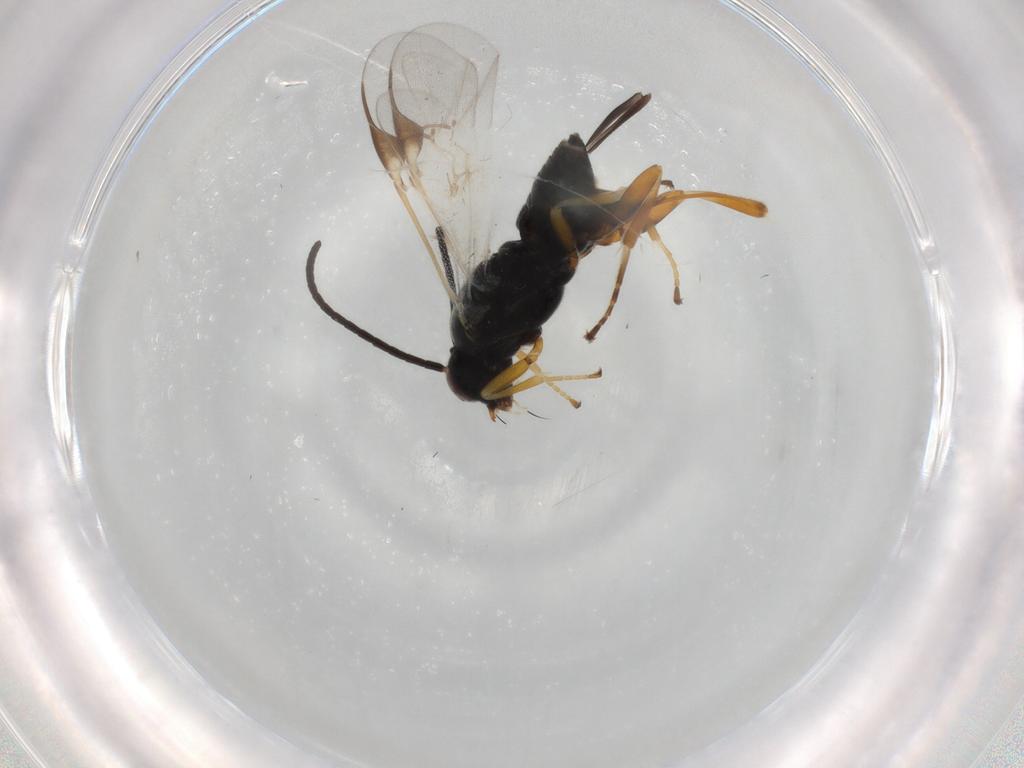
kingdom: Animalia
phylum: Arthropoda
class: Insecta
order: Hymenoptera
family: Braconidae
